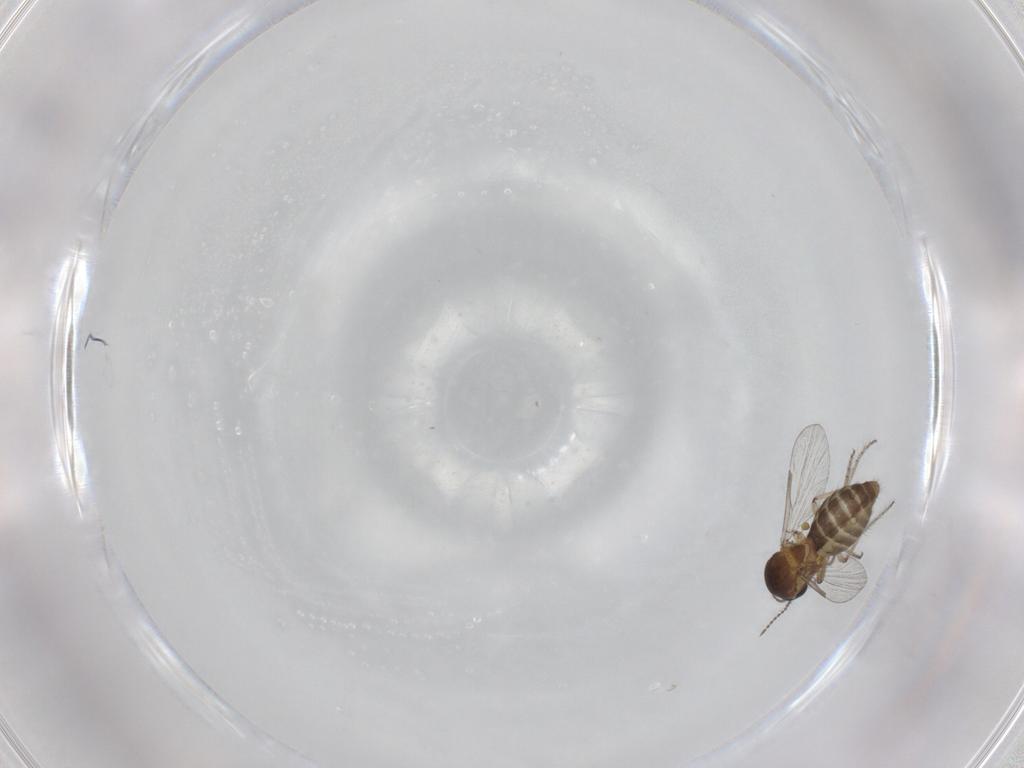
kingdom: Animalia
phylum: Arthropoda
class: Insecta
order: Diptera
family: Ceratopogonidae
